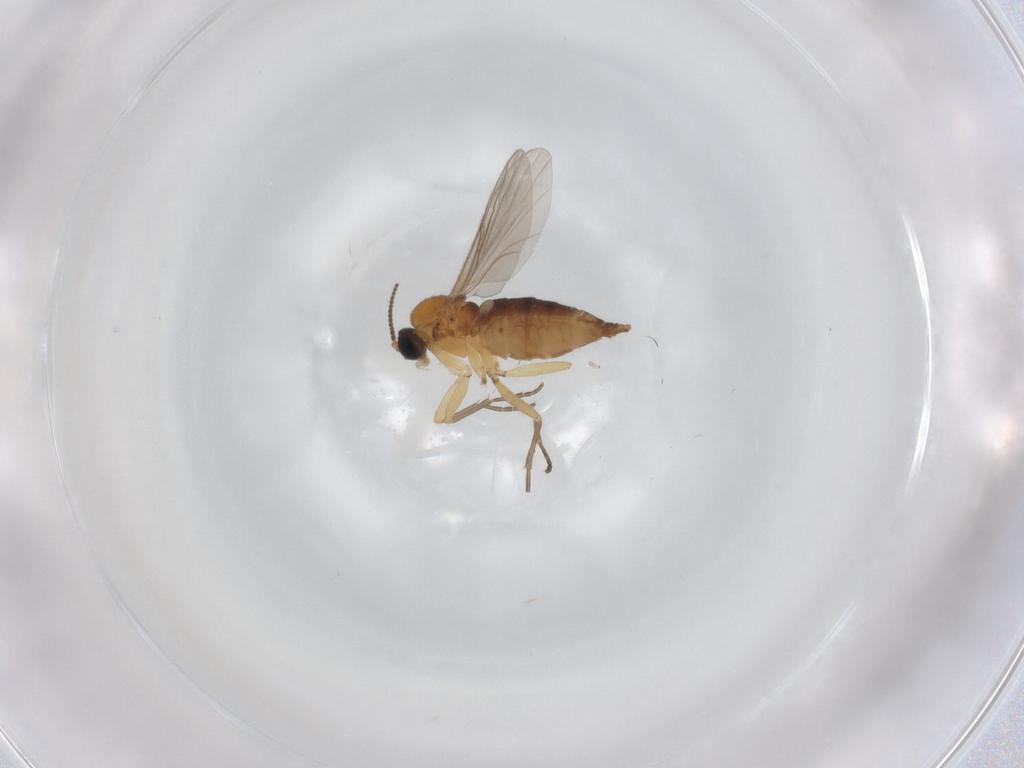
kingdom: Animalia
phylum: Arthropoda
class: Insecta
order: Diptera
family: Sciaridae
